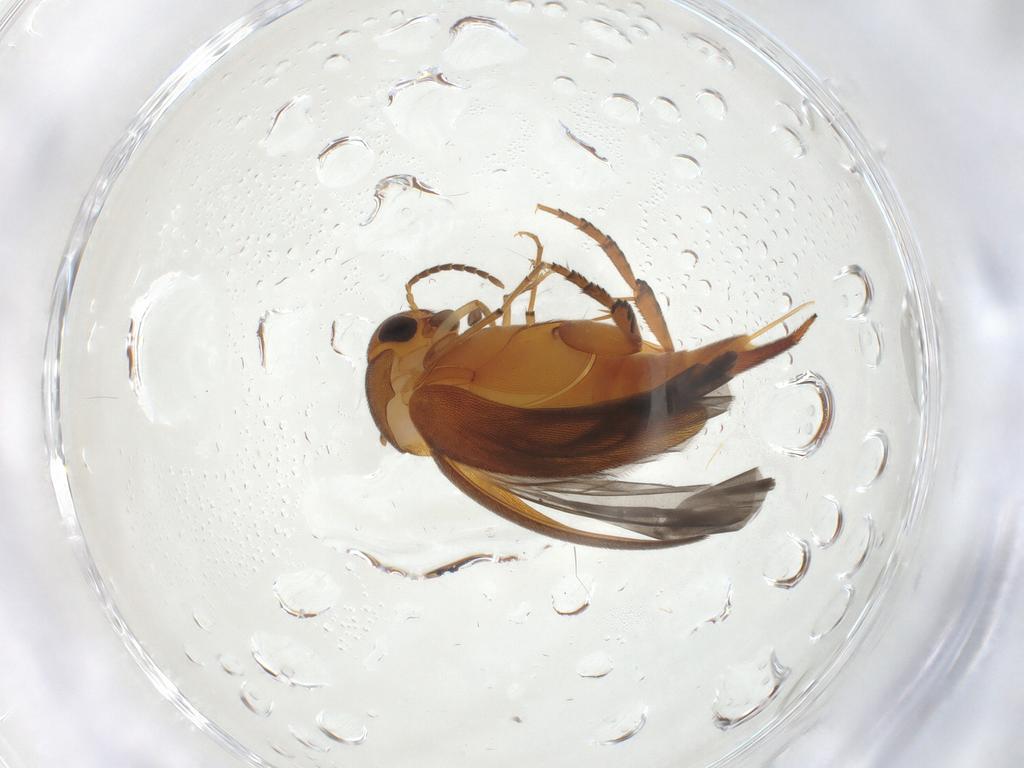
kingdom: Animalia
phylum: Arthropoda
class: Insecta
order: Coleoptera
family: Mordellidae
